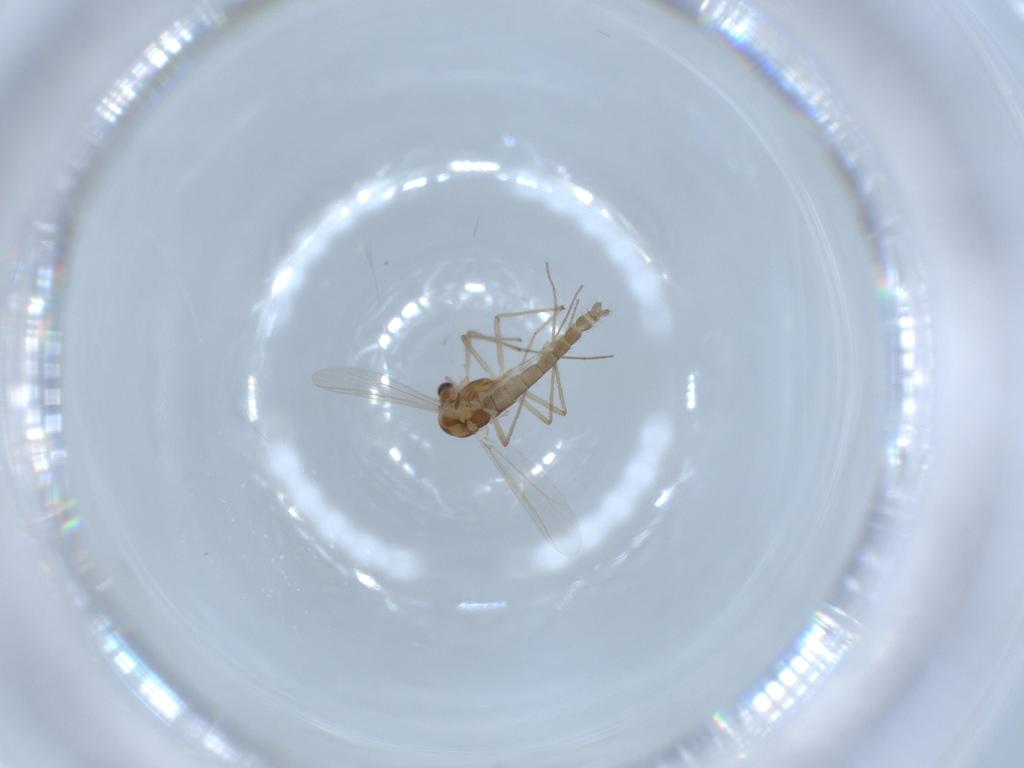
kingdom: Animalia
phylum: Arthropoda
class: Insecta
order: Diptera
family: Chironomidae
